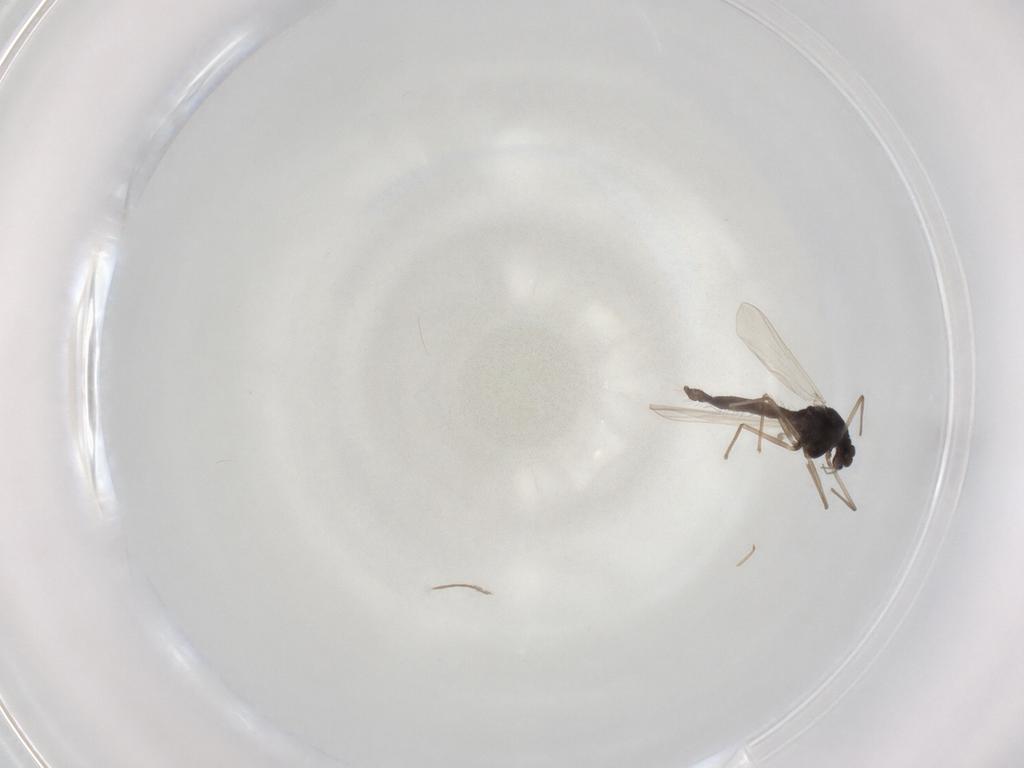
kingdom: Animalia
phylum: Arthropoda
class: Insecta
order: Diptera
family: Chironomidae
